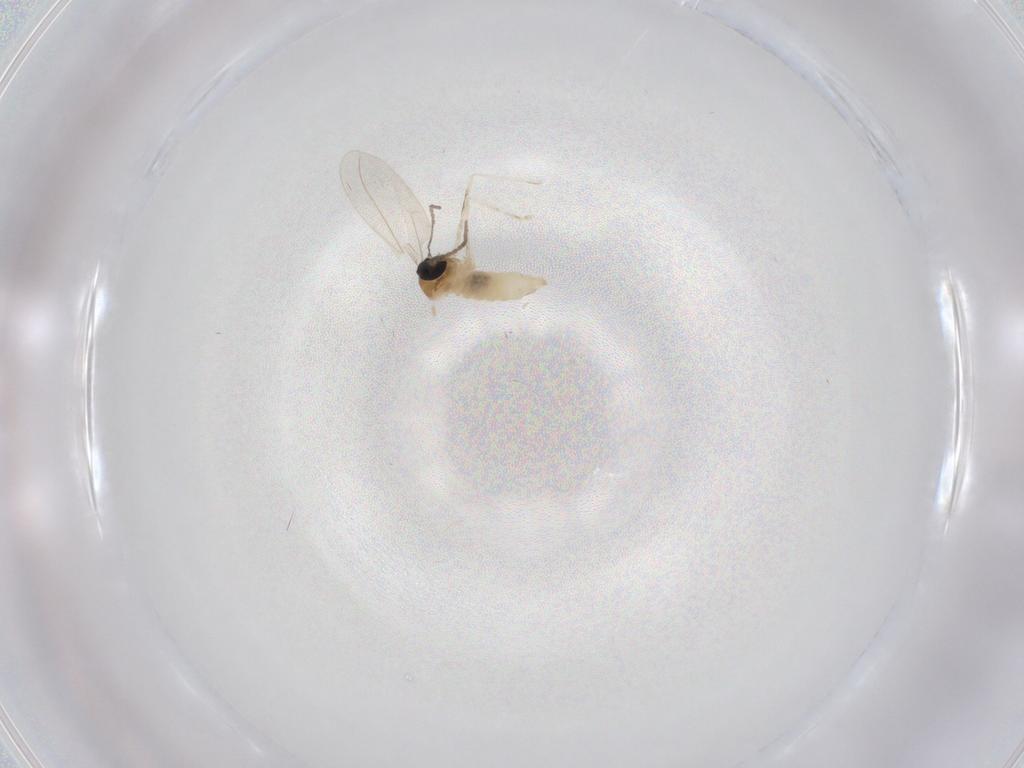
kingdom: Animalia
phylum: Arthropoda
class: Insecta
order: Diptera
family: Cecidomyiidae
